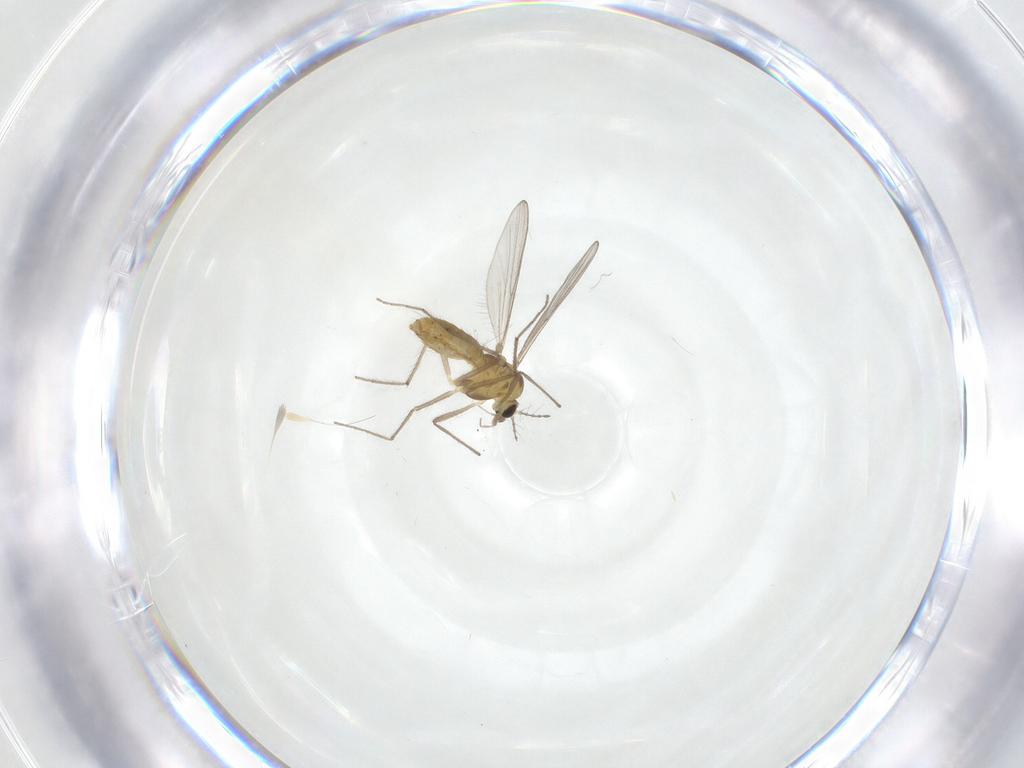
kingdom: Animalia
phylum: Arthropoda
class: Insecta
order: Diptera
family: Chironomidae
